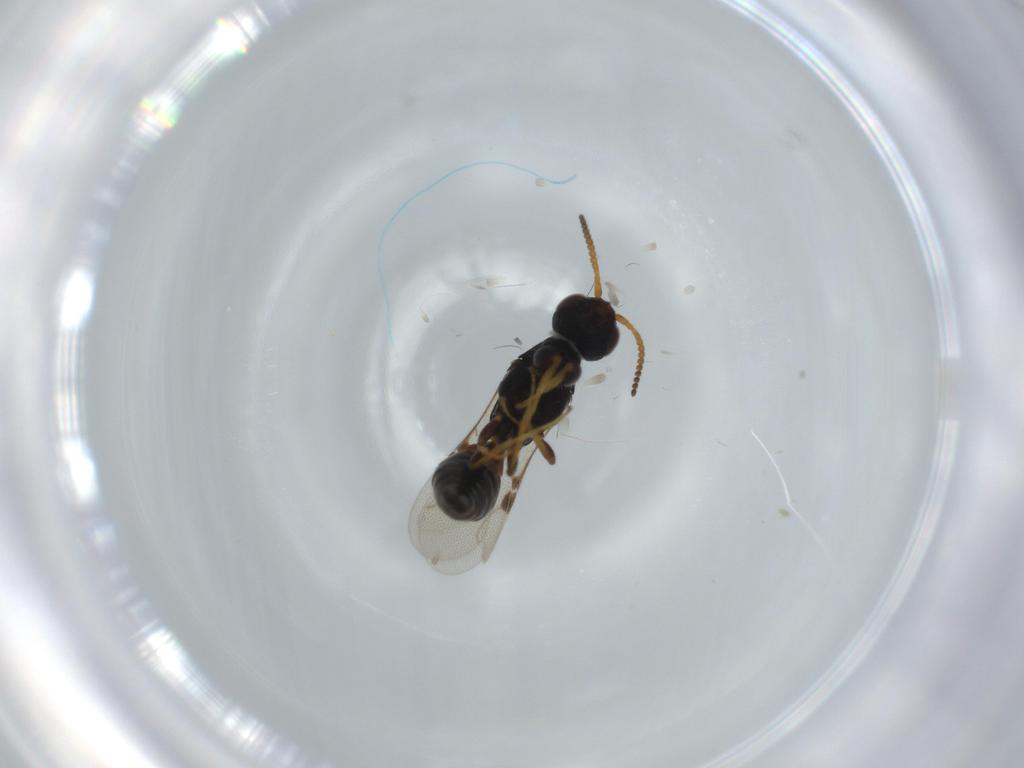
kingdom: Animalia
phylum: Arthropoda
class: Insecta
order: Hymenoptera
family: Bethylidae
